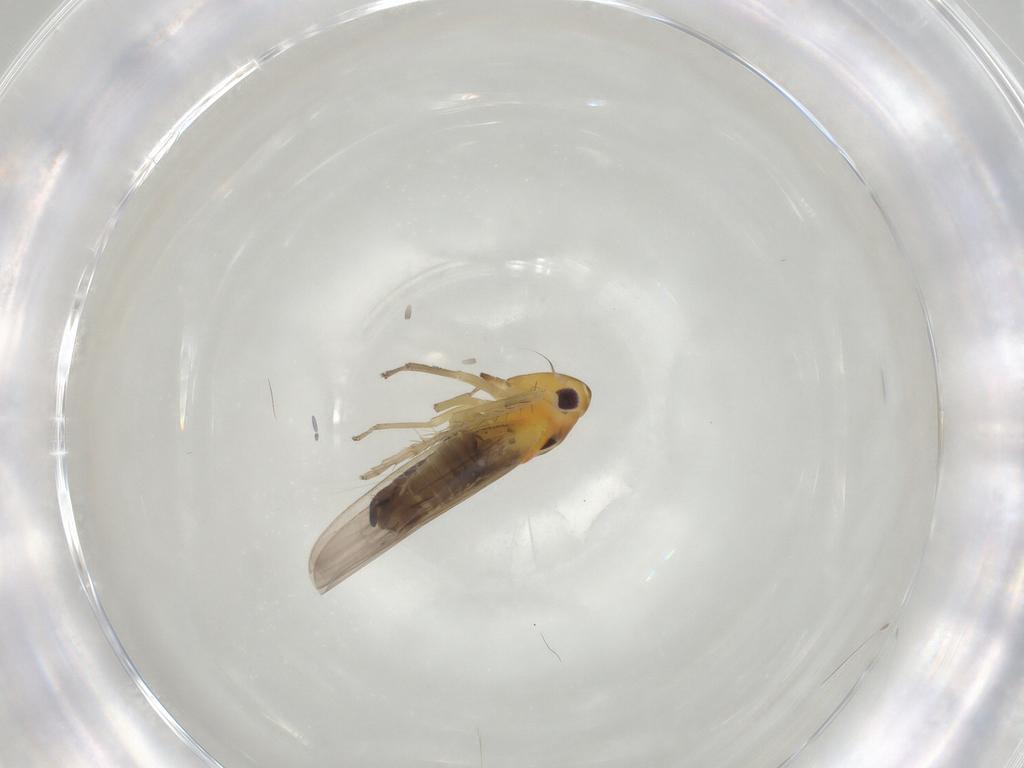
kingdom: Animalia
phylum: Arthropoda
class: Insecta
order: Hemiptera
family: Cicadellidae
